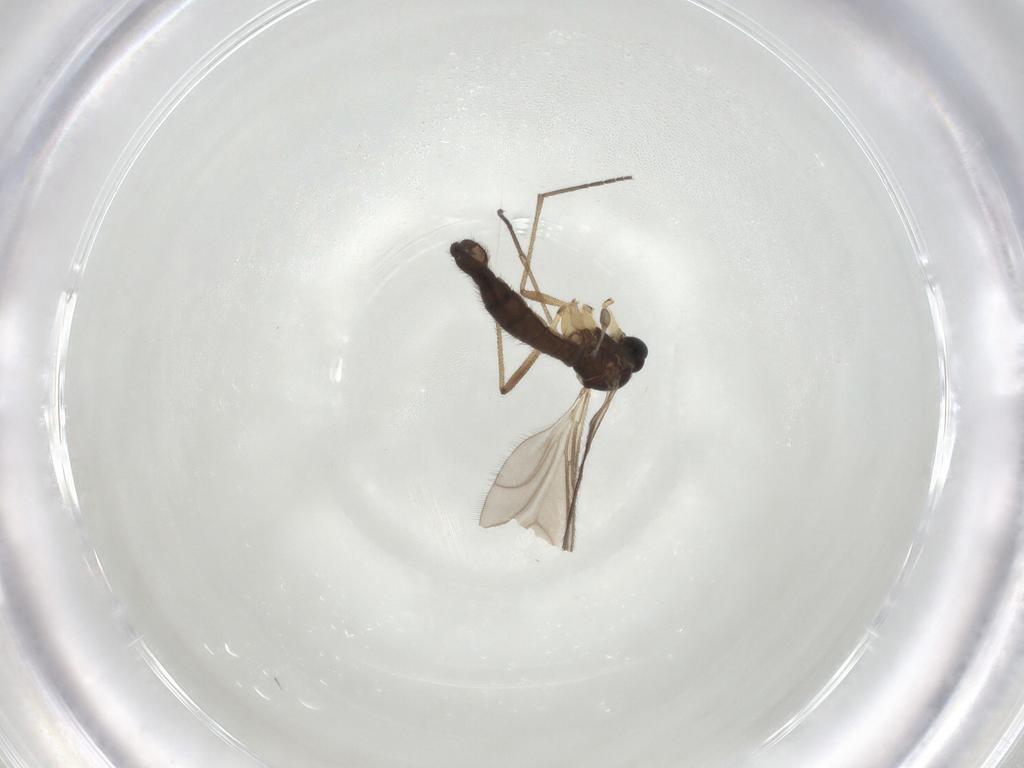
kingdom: Animalia
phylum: Arthropoda
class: Insecta
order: Diptera
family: Sciaridae
